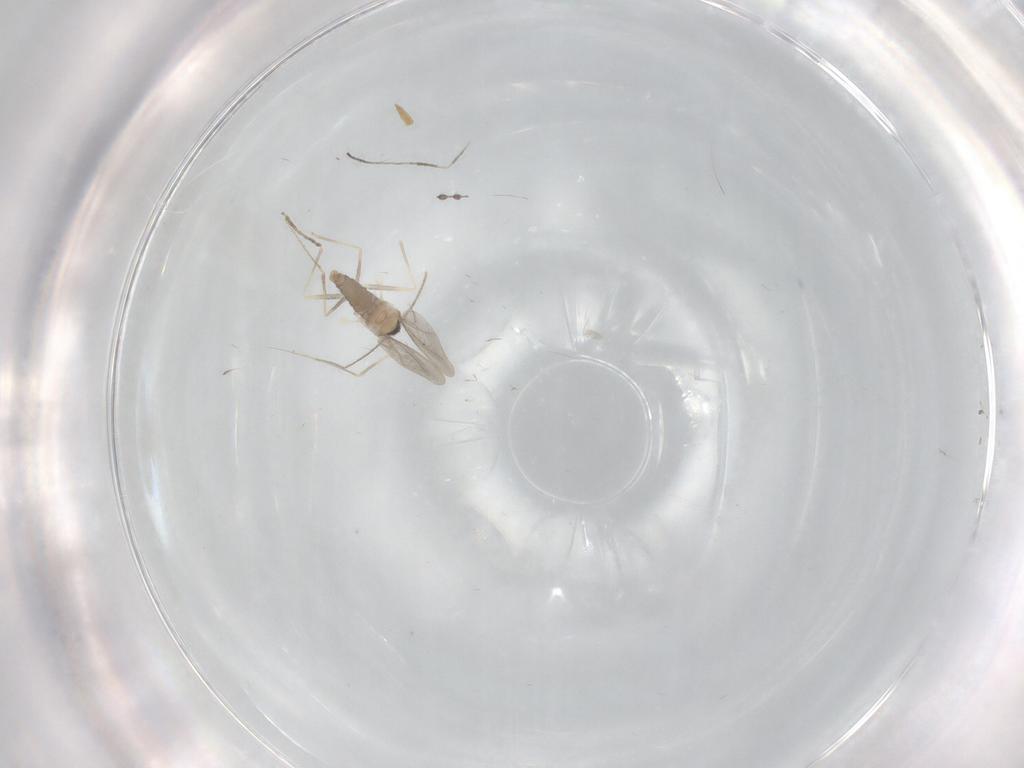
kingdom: Animalia
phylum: Arthropoda
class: Insecta
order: Diptera
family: Cecidomyiidae
